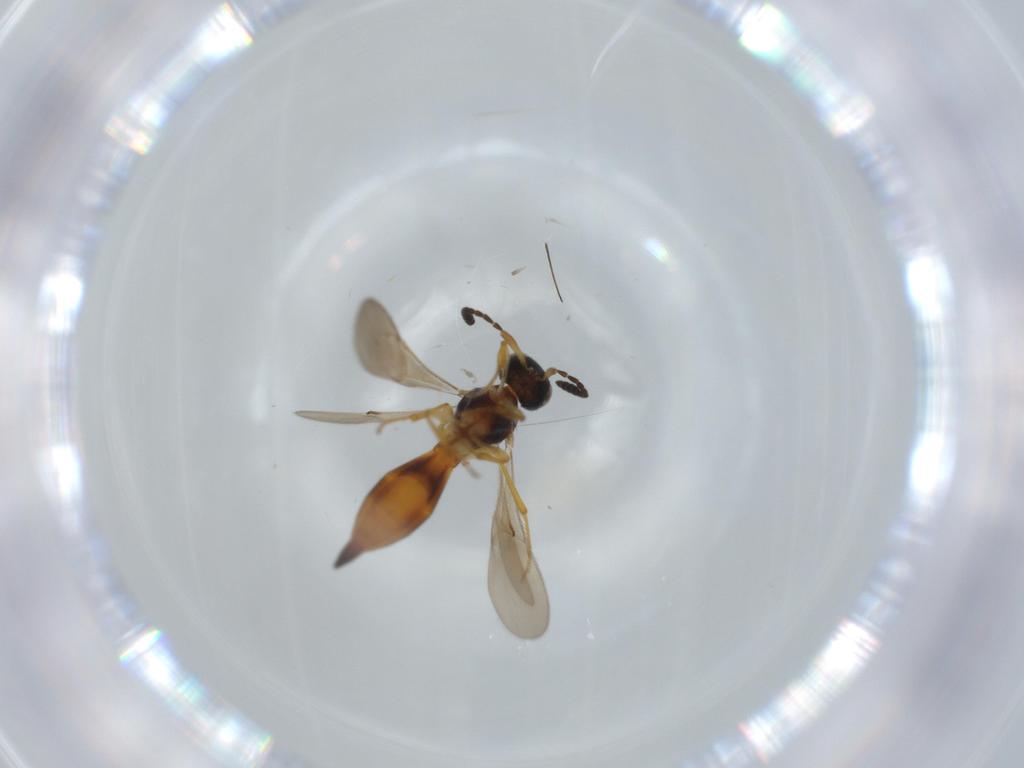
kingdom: Animalia
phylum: Arthropoda
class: Insecta
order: Hymenoptera
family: Scelionidae
